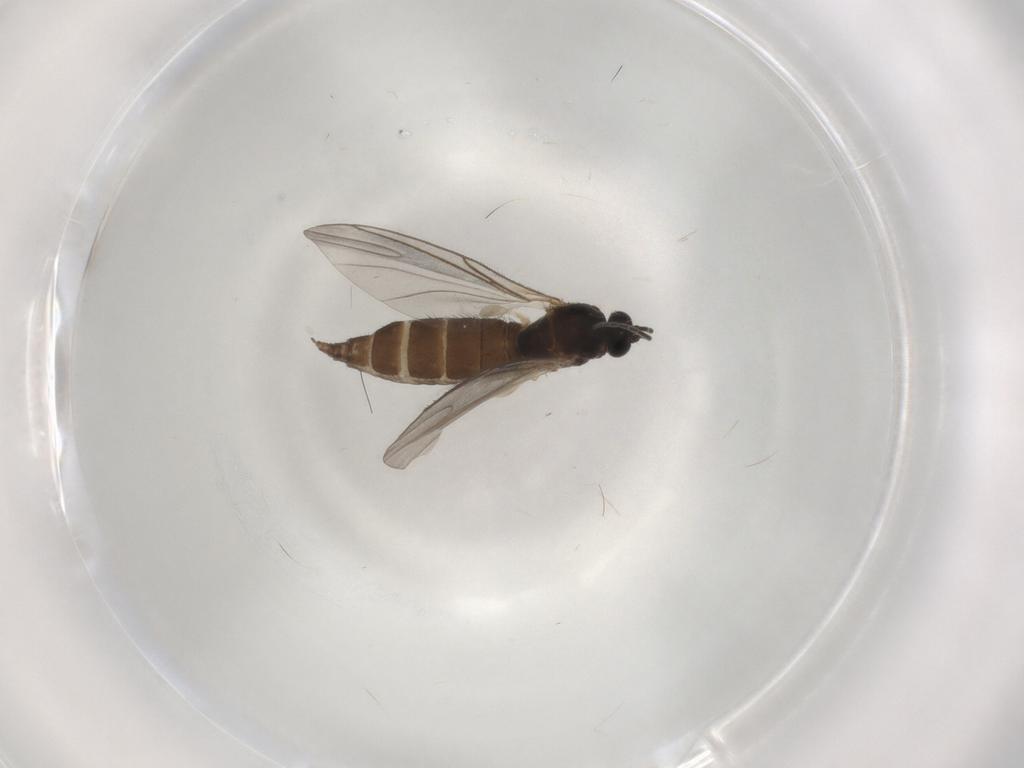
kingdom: Animalia
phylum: Arthropoda
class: Insecta
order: Diptera
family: Sciaridae
